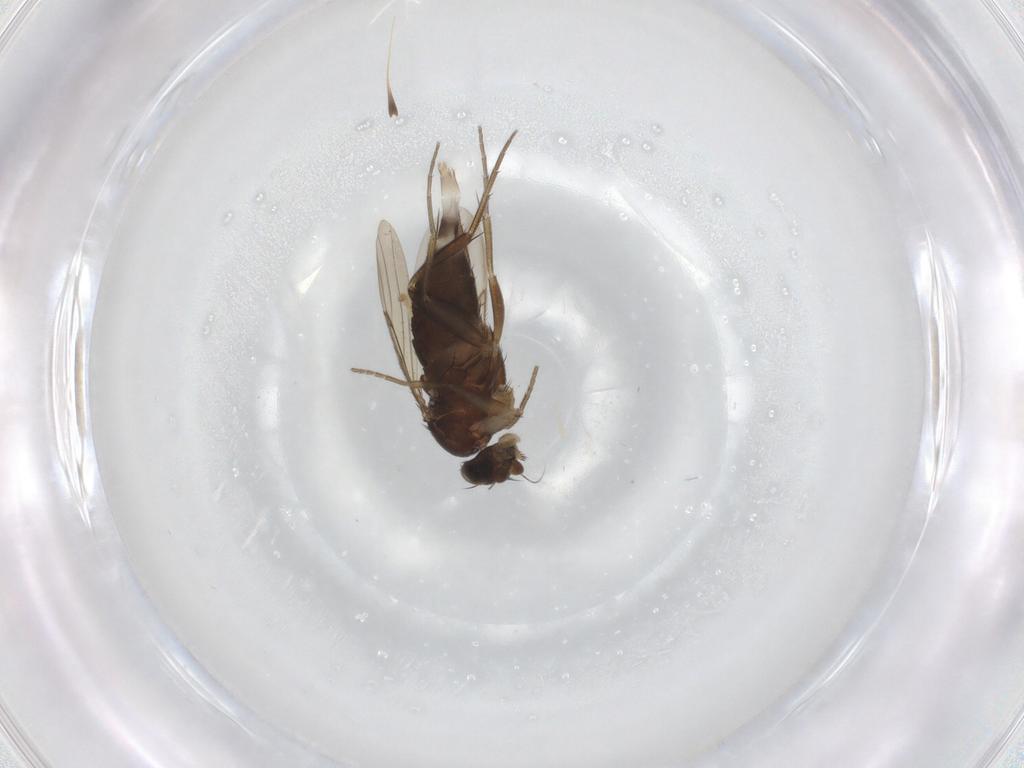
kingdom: Animalia
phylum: Arthropoda
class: Insecta
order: Diptera
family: Phoridae
